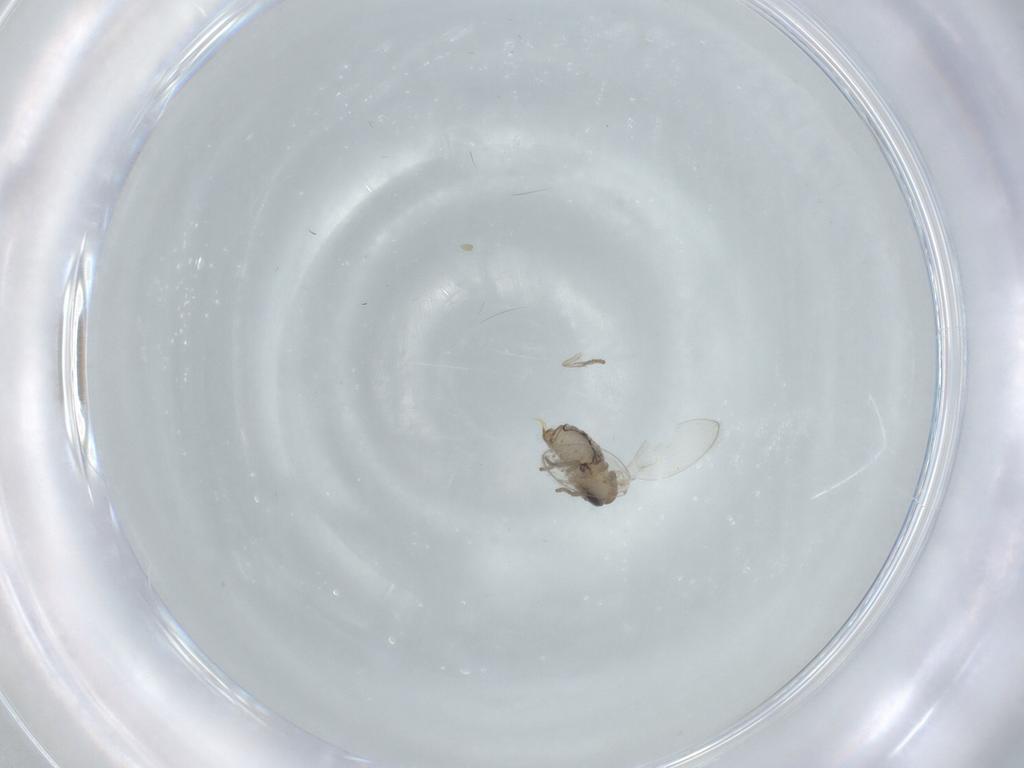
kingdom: Animalia
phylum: Arthropoda
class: Insecta
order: Diptera
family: Psychodidae
